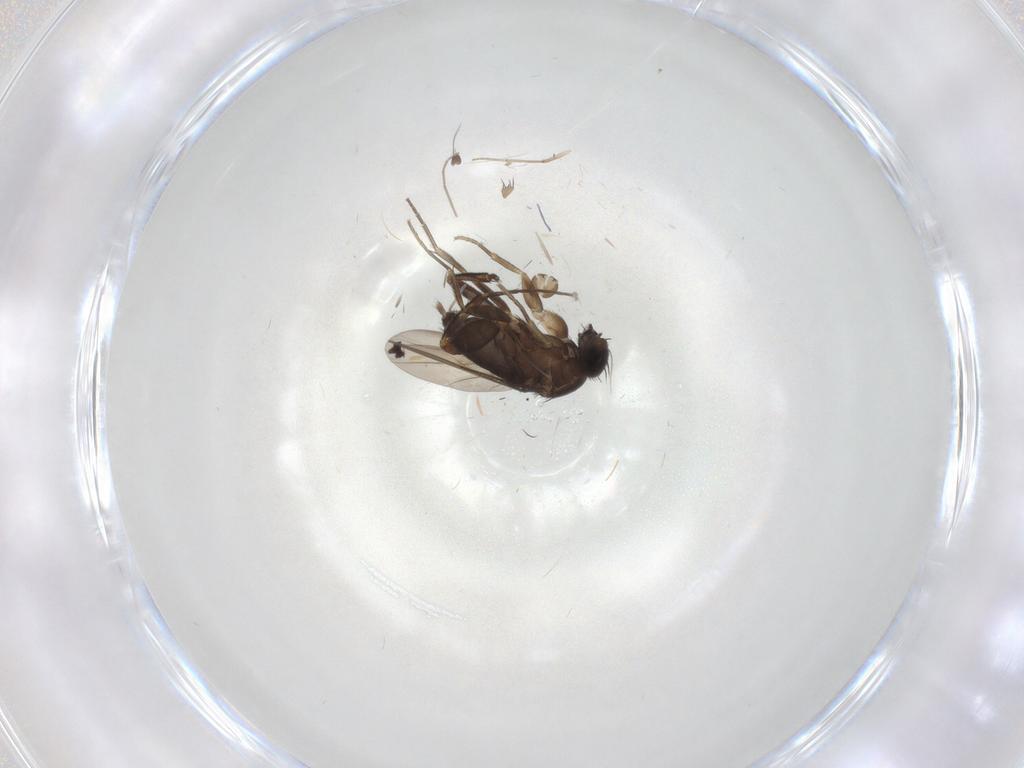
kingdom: Animalia
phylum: Arthropoda
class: Insecta
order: Diptera
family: Phoridae
